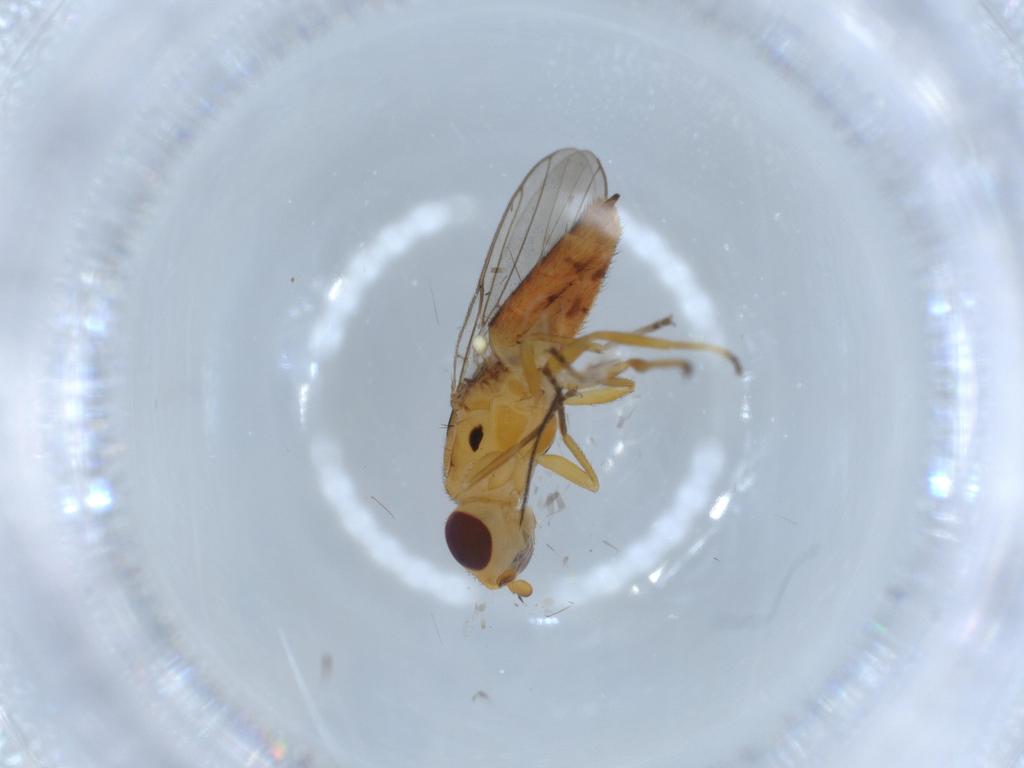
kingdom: Animalia
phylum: Arthropoda
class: Insecta
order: Diptera
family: Chloropidae
